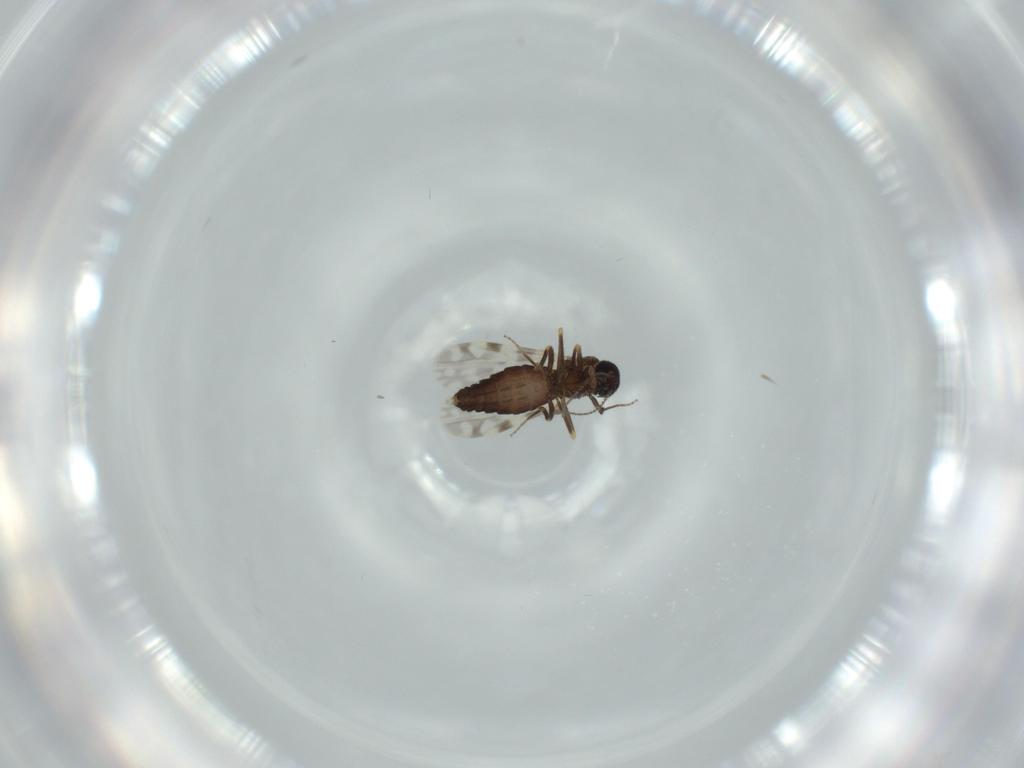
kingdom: Animalia
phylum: Arthropoda
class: Insecta
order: Diptera
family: Ceratopogonidae
